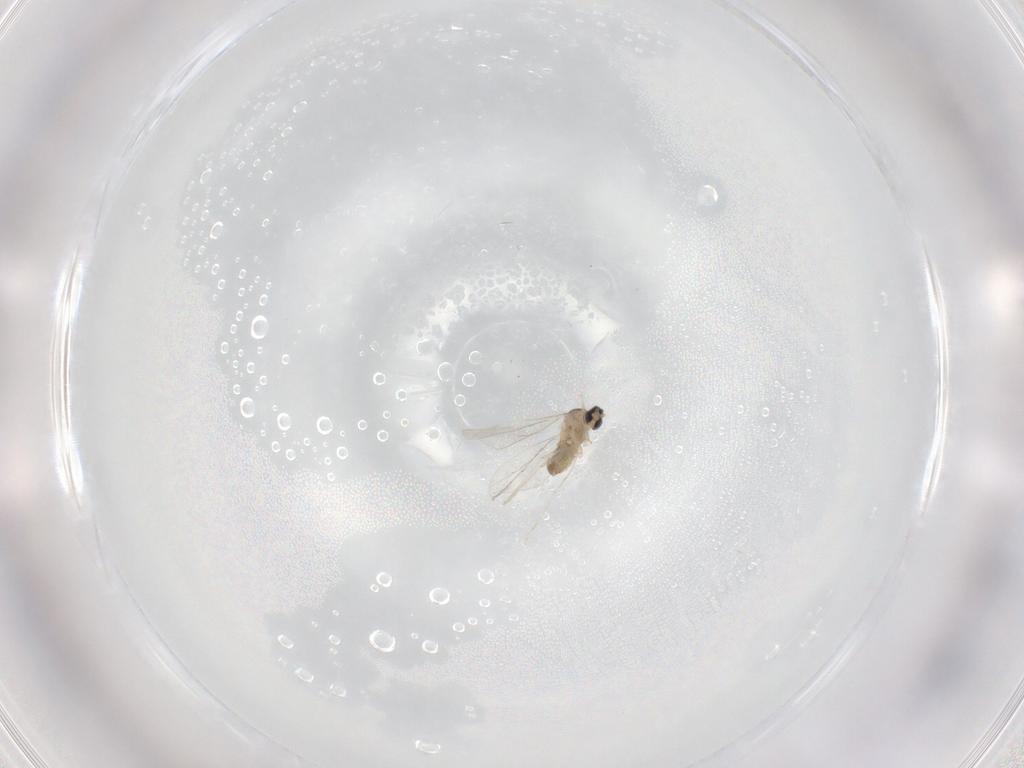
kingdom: Animalia
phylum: Arthropoda
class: Insecta
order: Diptera
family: Cecidomyiidae
